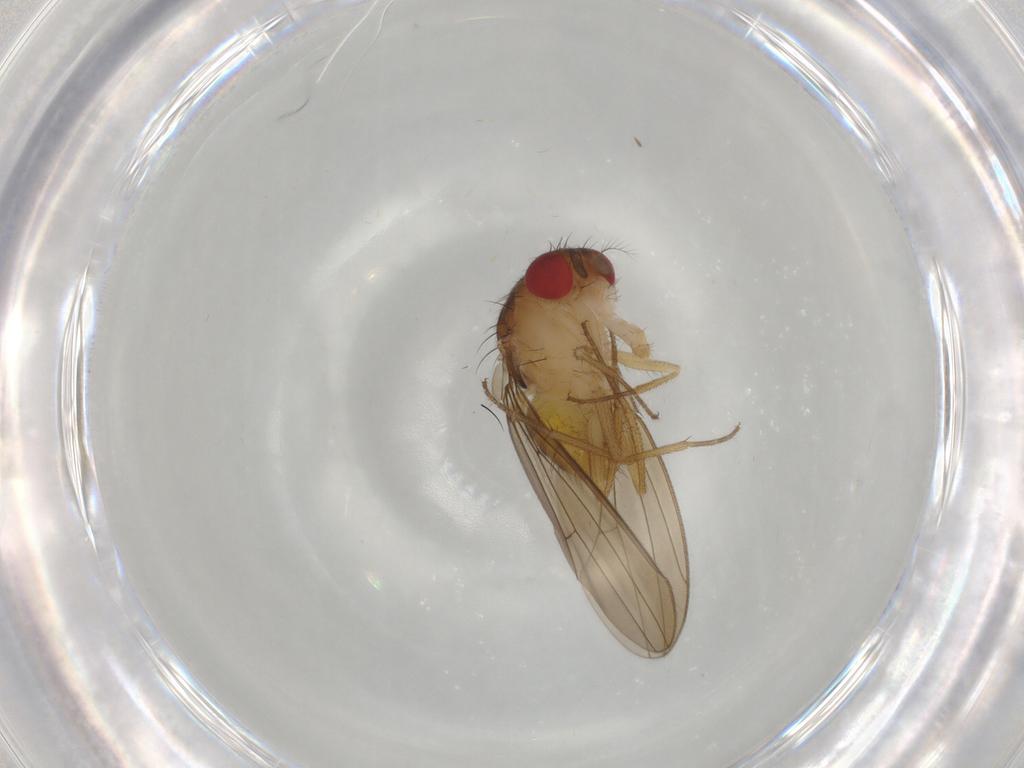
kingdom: Animalia
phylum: Arthropoda
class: Insecta
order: Diptera
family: Drosophilidae
